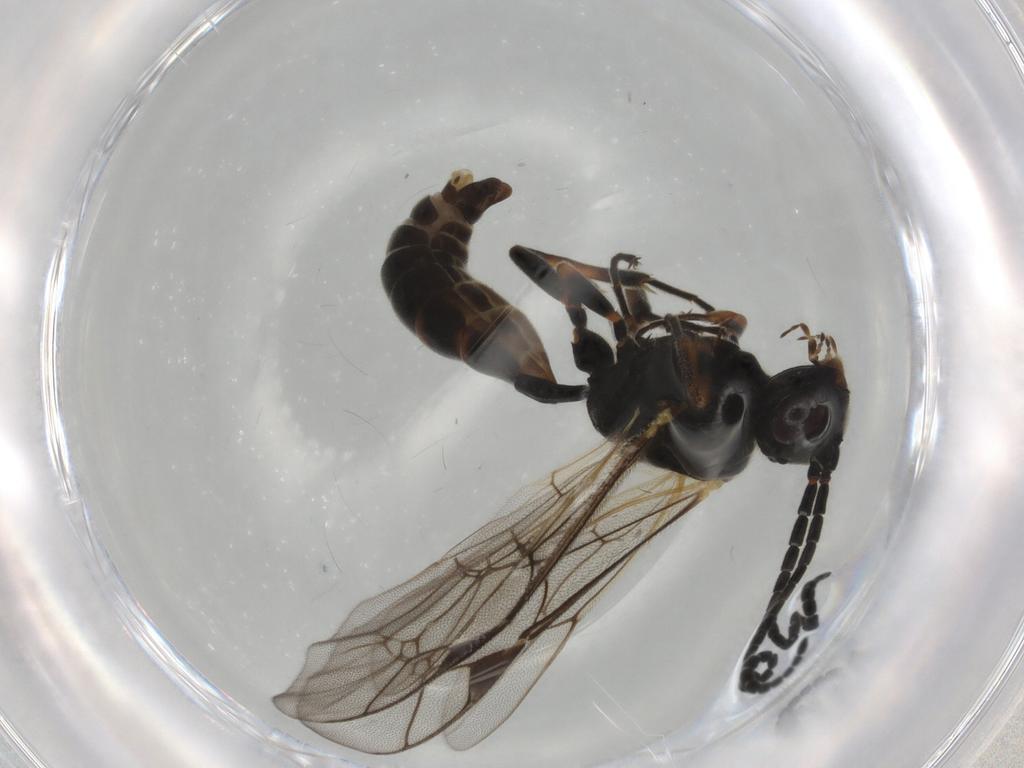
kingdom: Animalia
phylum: Arthropoda
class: Insecta
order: Hymenoptera
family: Ichneumonidae
